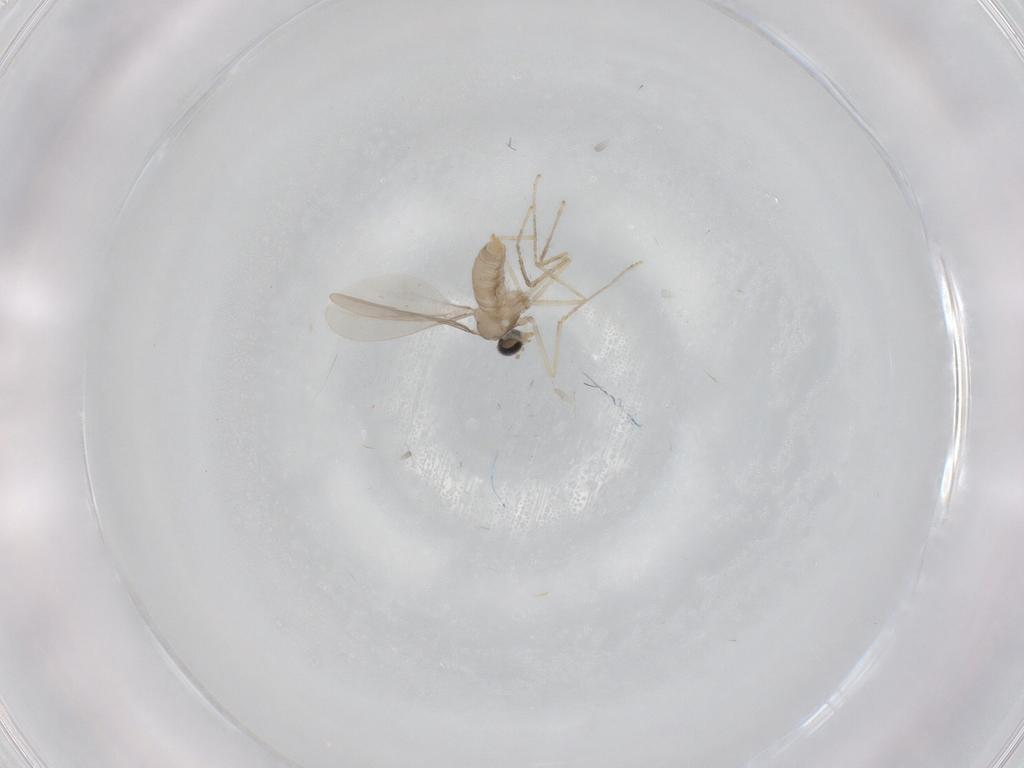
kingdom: Animalia
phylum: Arthropoda
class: Insecta
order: Diptera
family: Cecidomyiidae
